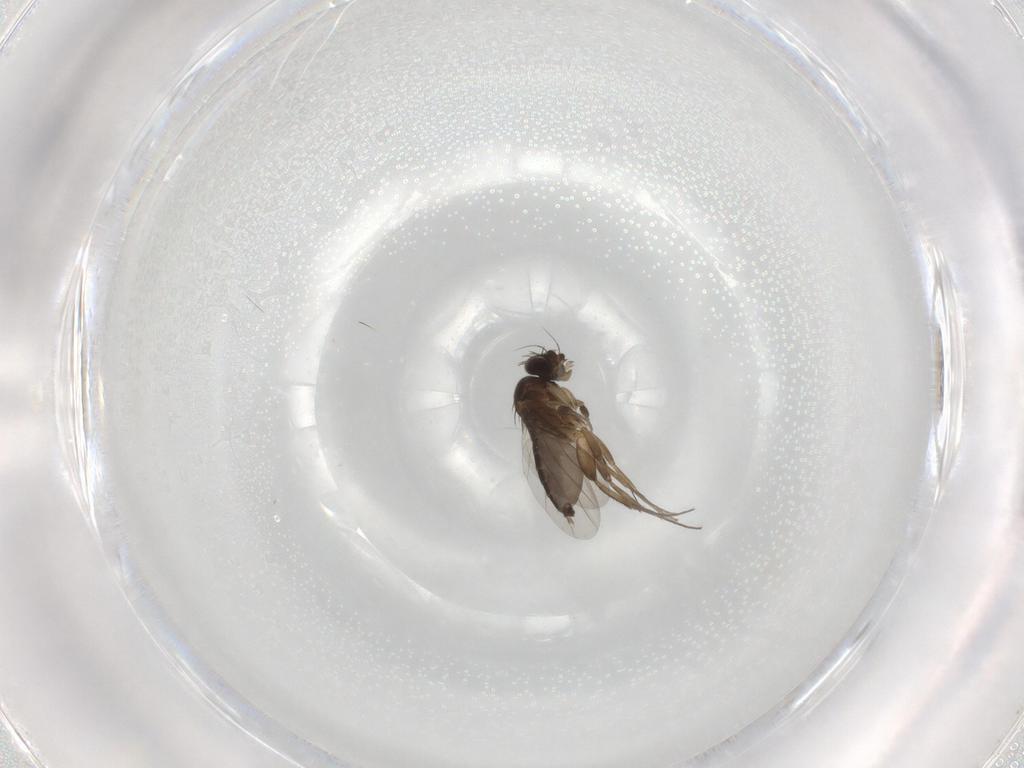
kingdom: Animalia
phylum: Arthropoda
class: Insecta
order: Diptera
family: Phoridae
